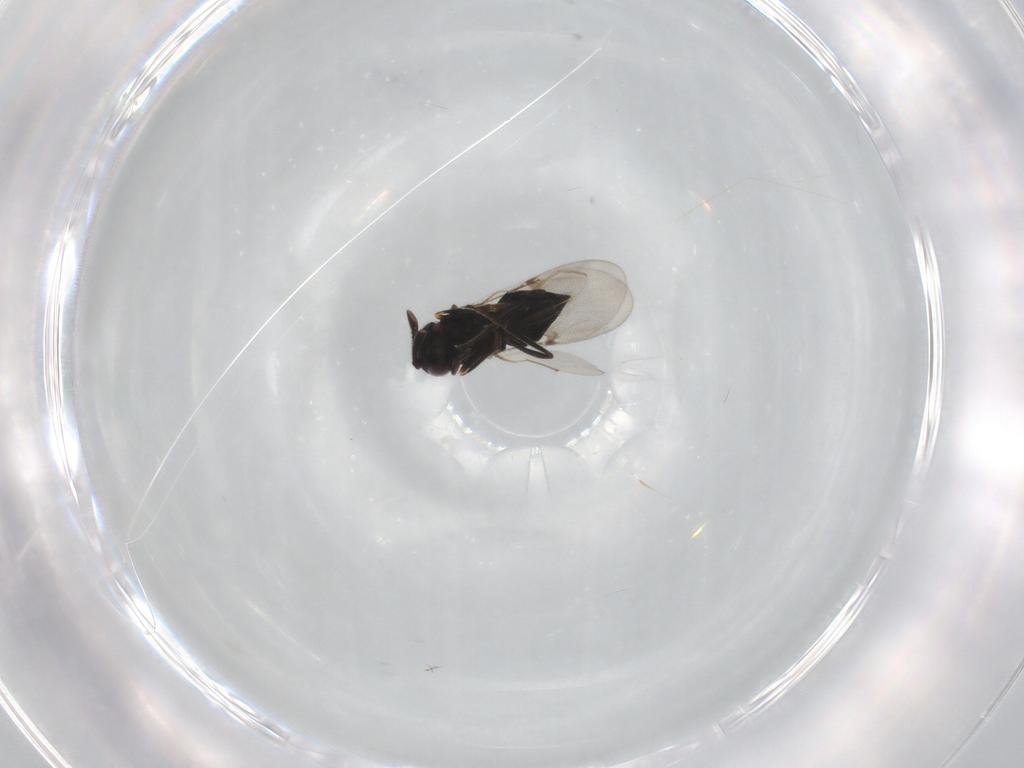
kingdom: Animalia
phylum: Arthropoda
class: Insecta
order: Hymenoptera
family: Encyrtidae
